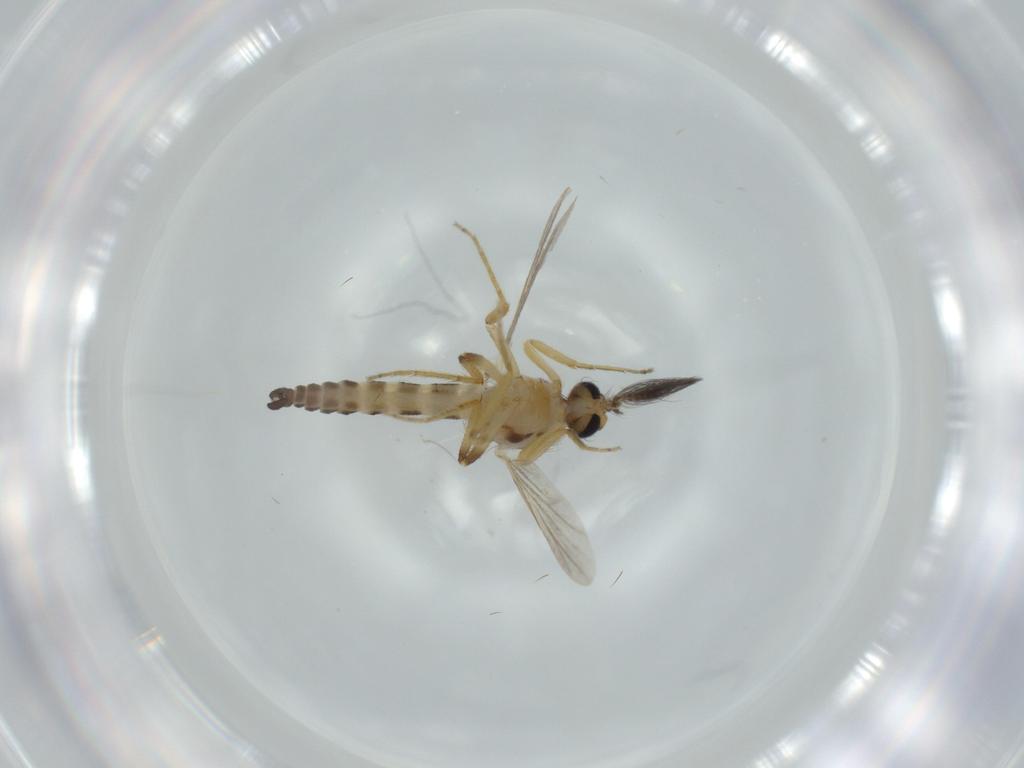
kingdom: Animalia
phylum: Arthropoda
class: Insecta
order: Diptera
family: Ceratopogonidae
